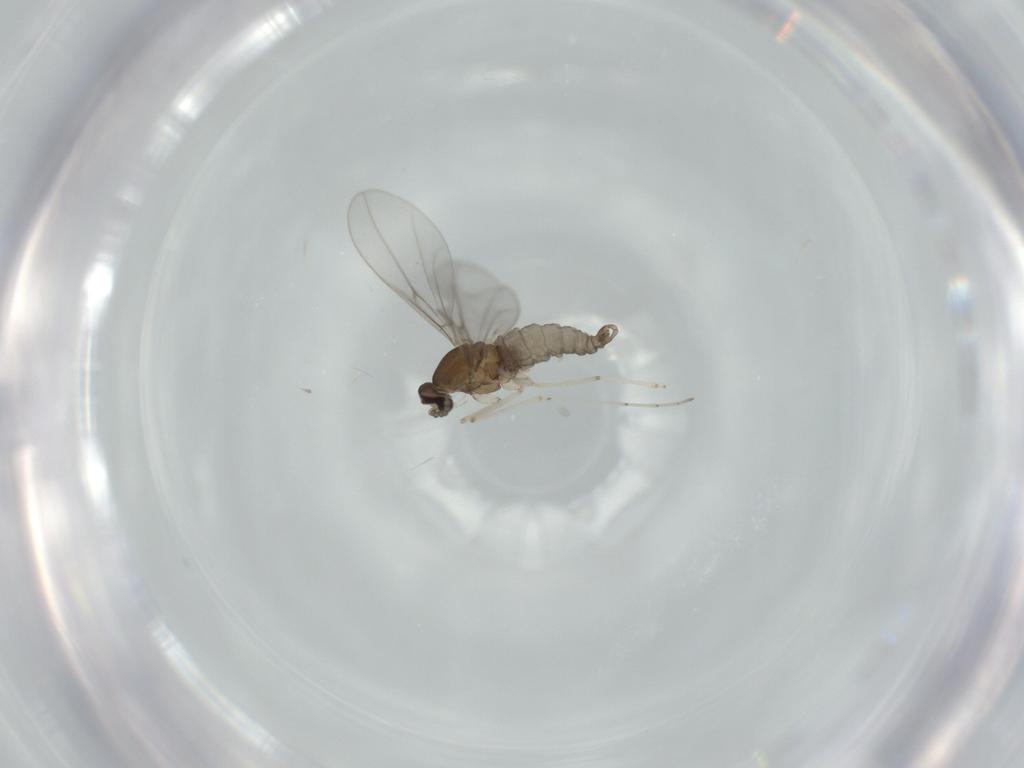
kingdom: Animalia
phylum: Arthropoda
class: Insecta
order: Diptera
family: Cecidomyiidae
